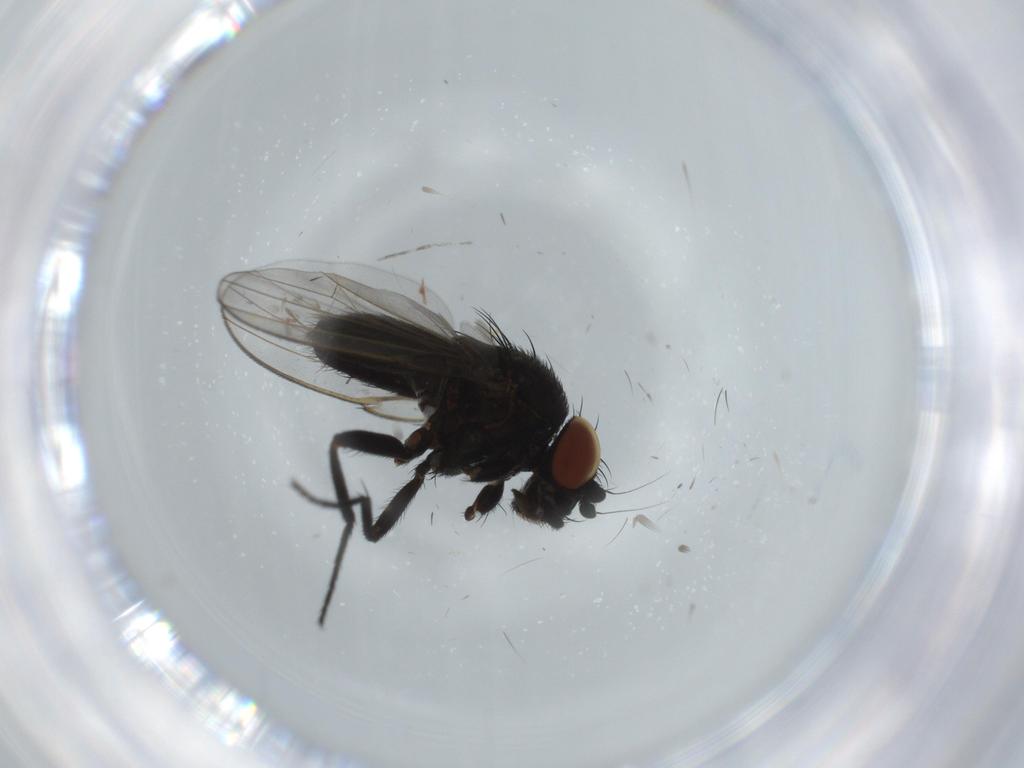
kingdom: Animalia
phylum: Arthropoda
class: Insecta
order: Diptera
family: Milichiidae
